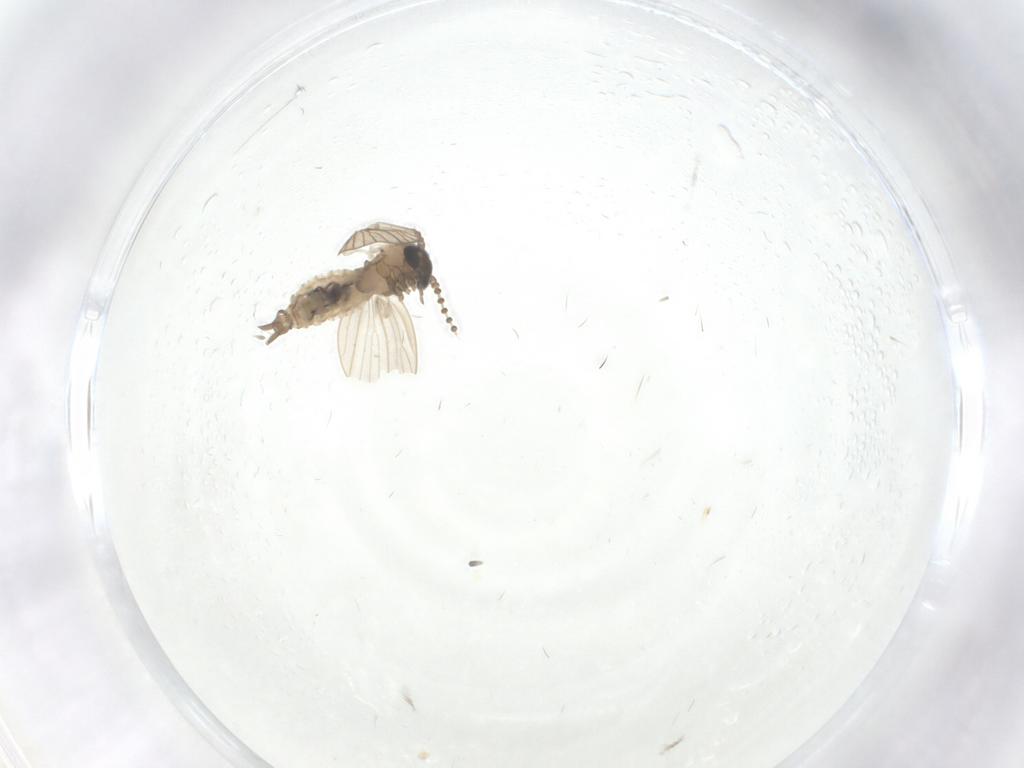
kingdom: Animalia
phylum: Arthropoda
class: Insecta
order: Diptera
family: Psychodidae
